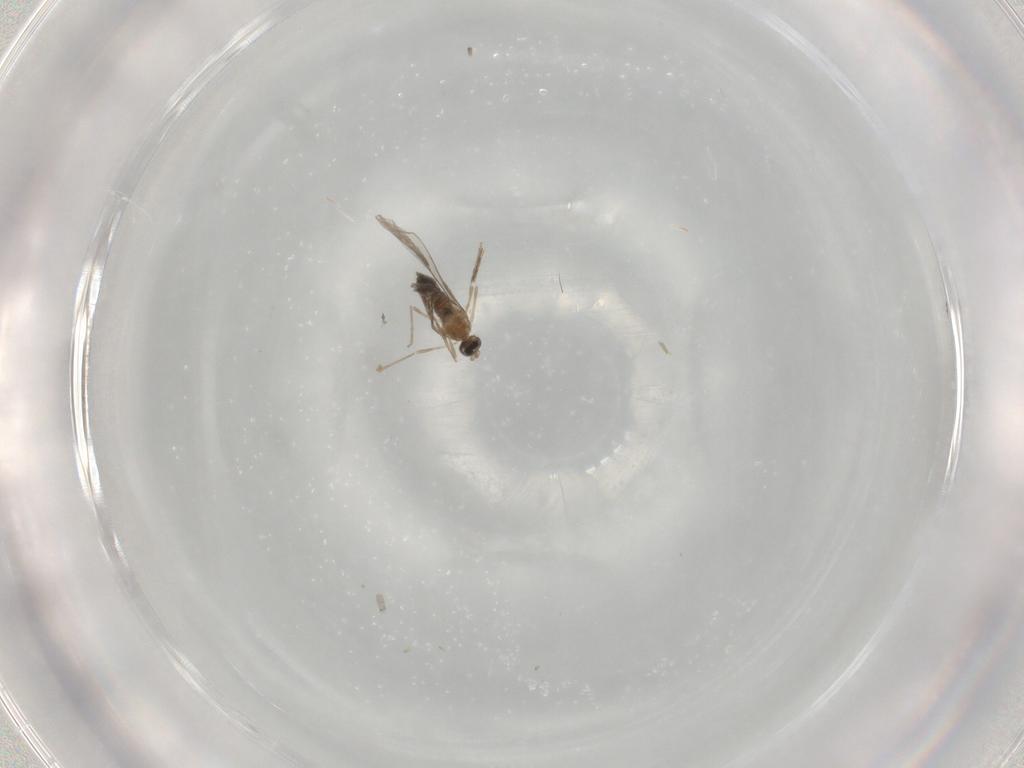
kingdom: Animalia
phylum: Arthropoda
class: Insecta
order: Diptera
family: Cecidomyiidae
